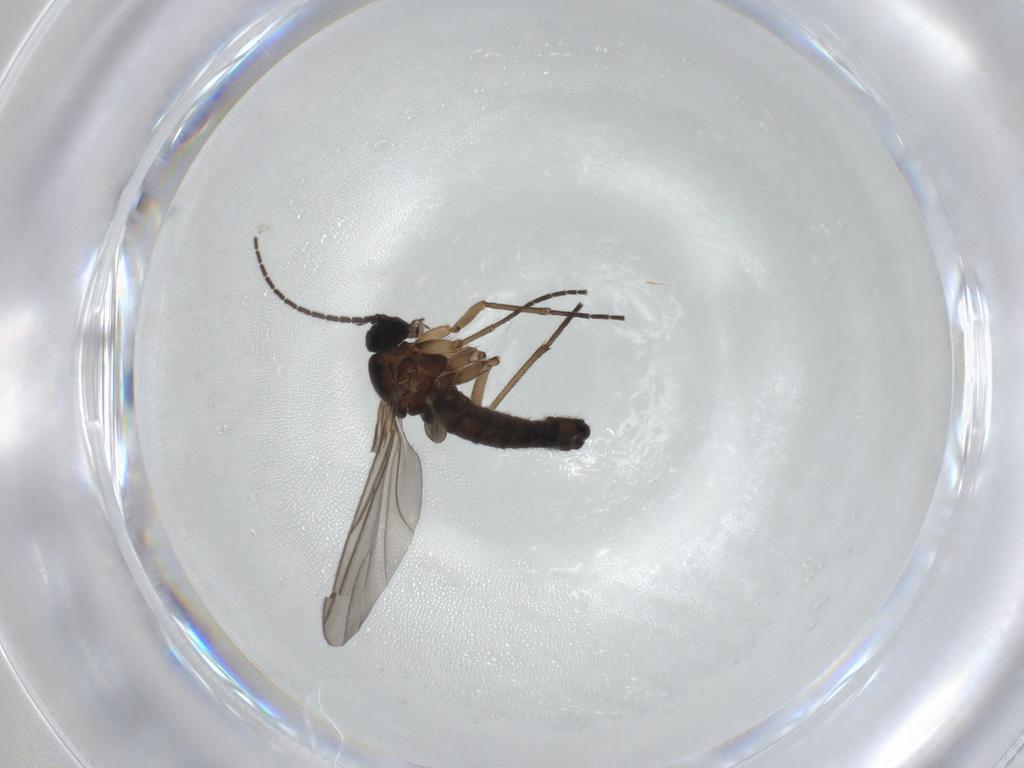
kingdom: Animalia
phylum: Arthropoda
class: Insecta
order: Diptera
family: Sciaridae
